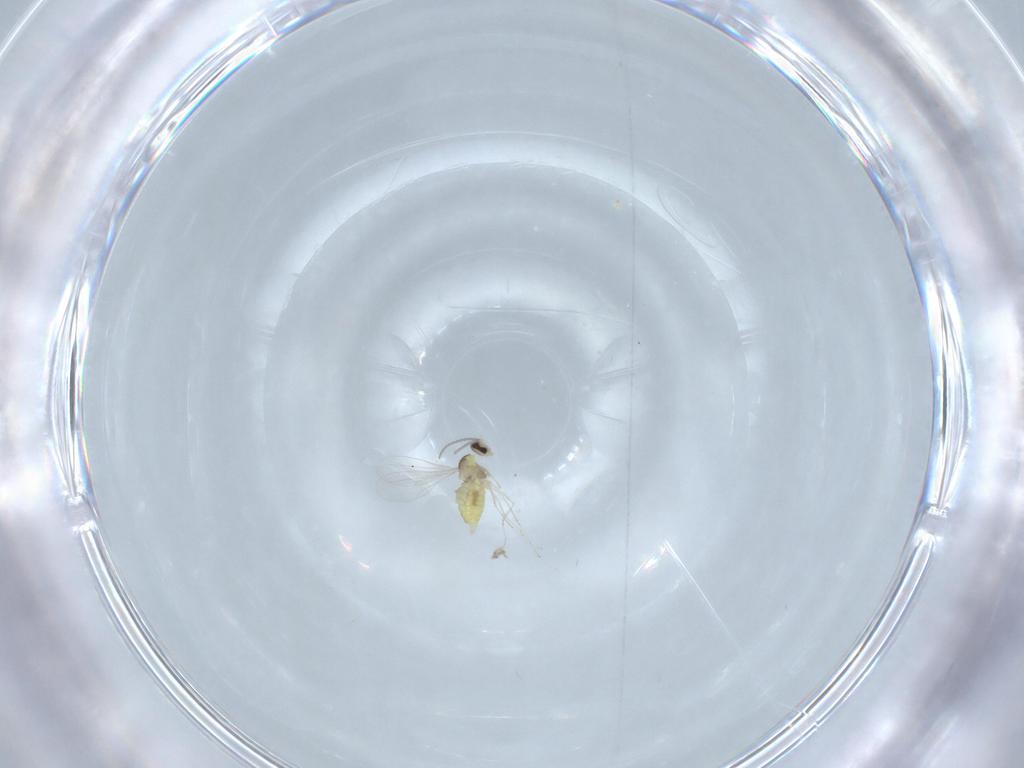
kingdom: Animalia
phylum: Arthropoda
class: Insecta
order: Diptera
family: Cecidomyiidae
